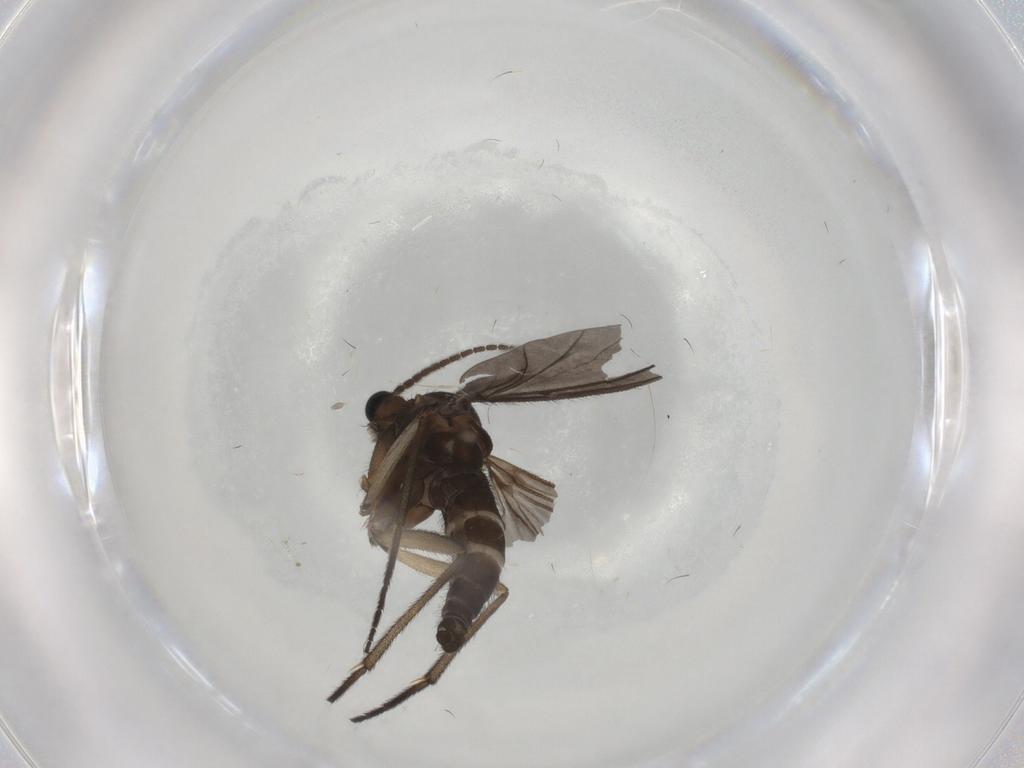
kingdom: Animalia
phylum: Arthropoda
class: Insecta
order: Diptera
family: Sciaridae
